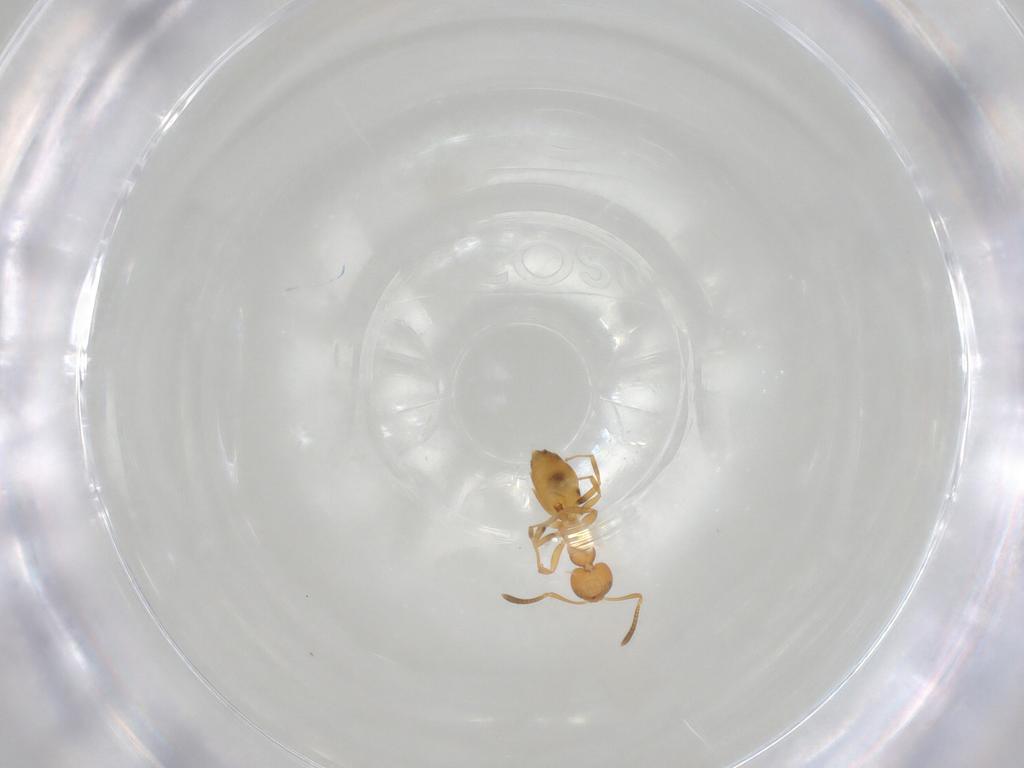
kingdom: Animalia
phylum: Arthropoda
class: Insecta
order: Hymenoptera
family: Formicidae
